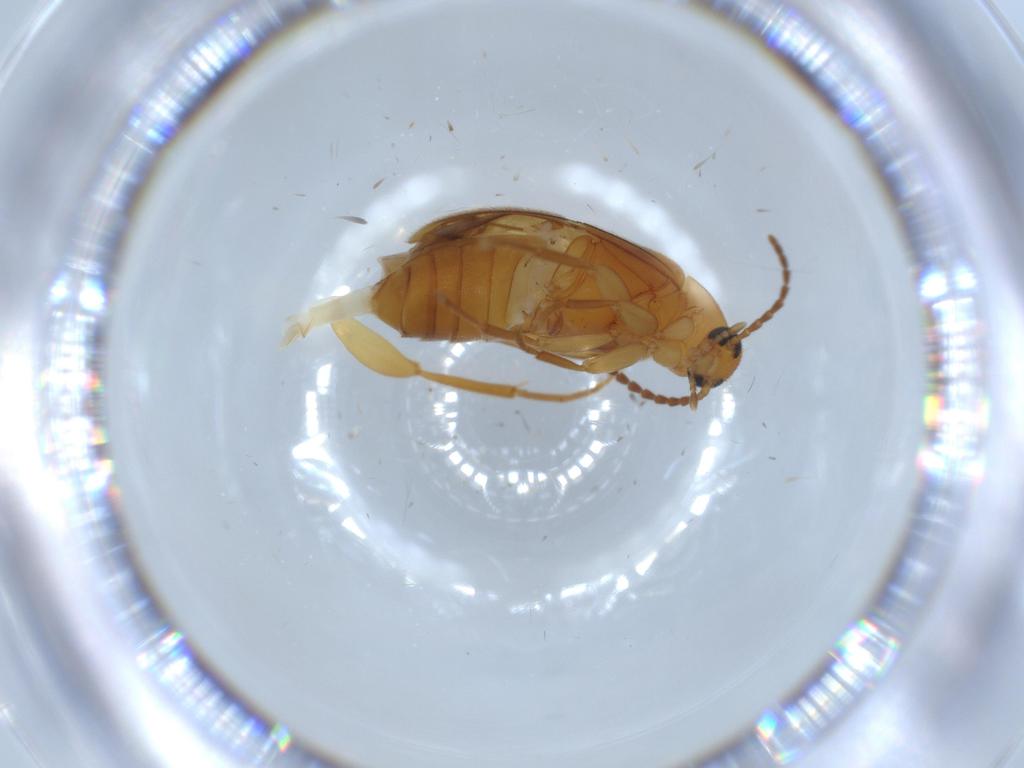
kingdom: Animalia
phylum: Arthropoda
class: Insecta
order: Coleoptera
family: Scraptiidae
